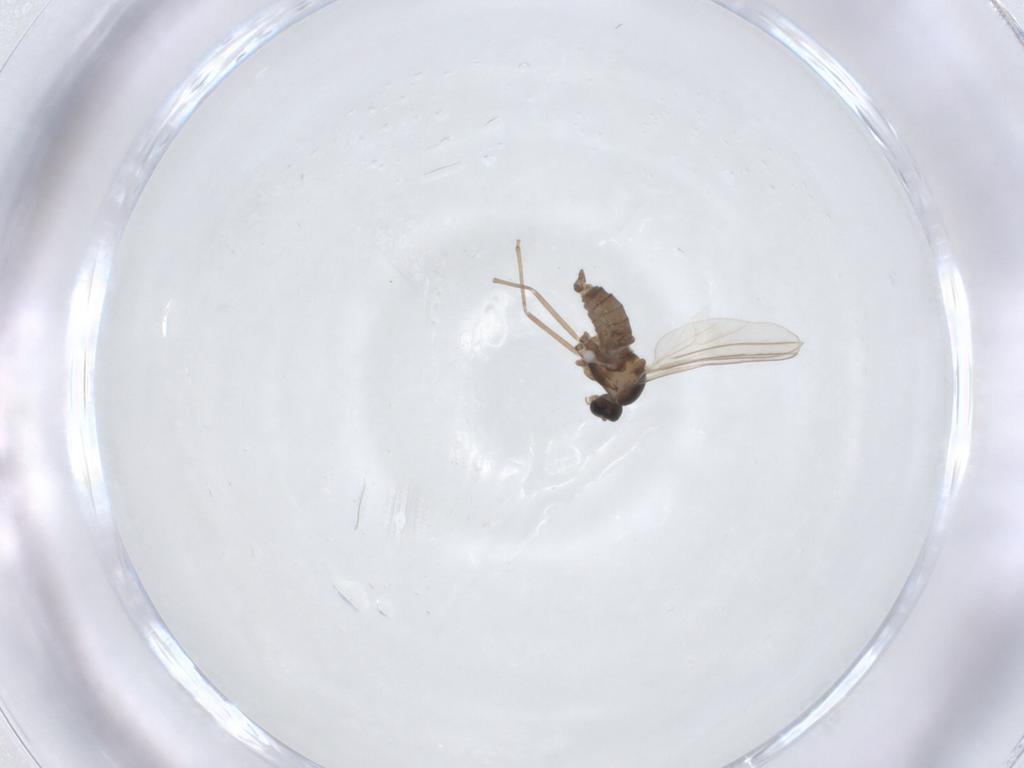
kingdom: Animalia
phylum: Arthropoda
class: Insecta
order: Diptera
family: Cecidomyiidae
